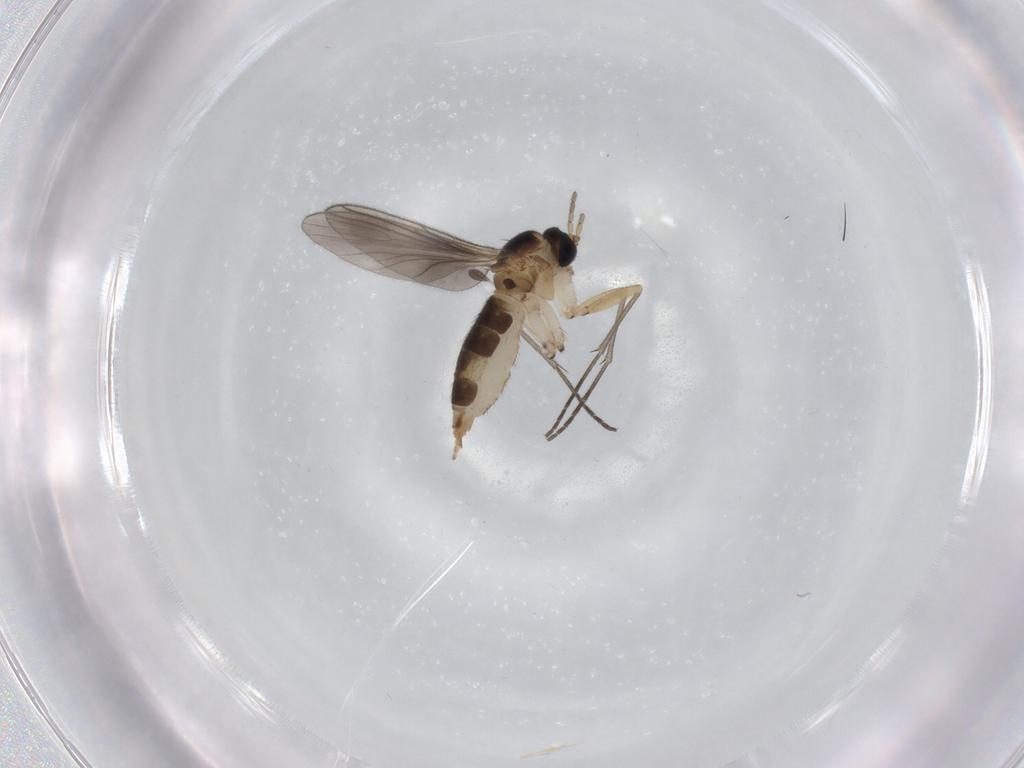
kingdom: Animalia
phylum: Arthropoda
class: Insecta
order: Diptera
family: Sciaridae
